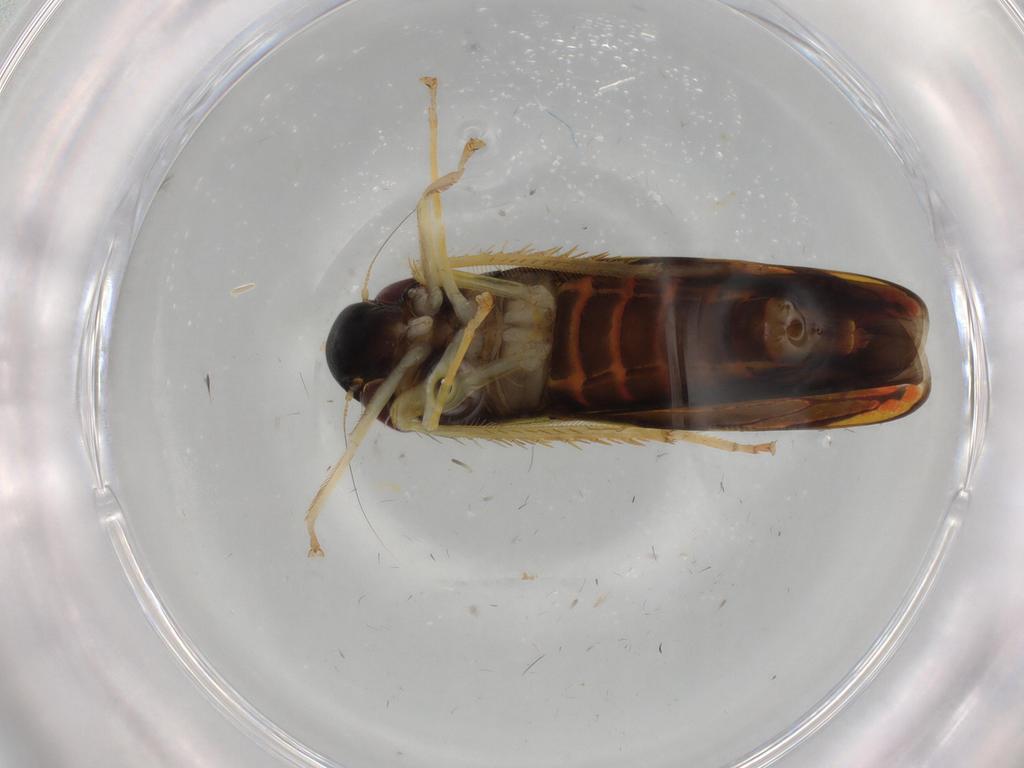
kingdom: Animalia
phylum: Arthropoda
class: Insecta
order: Hemiptera
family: Cicadellidae
